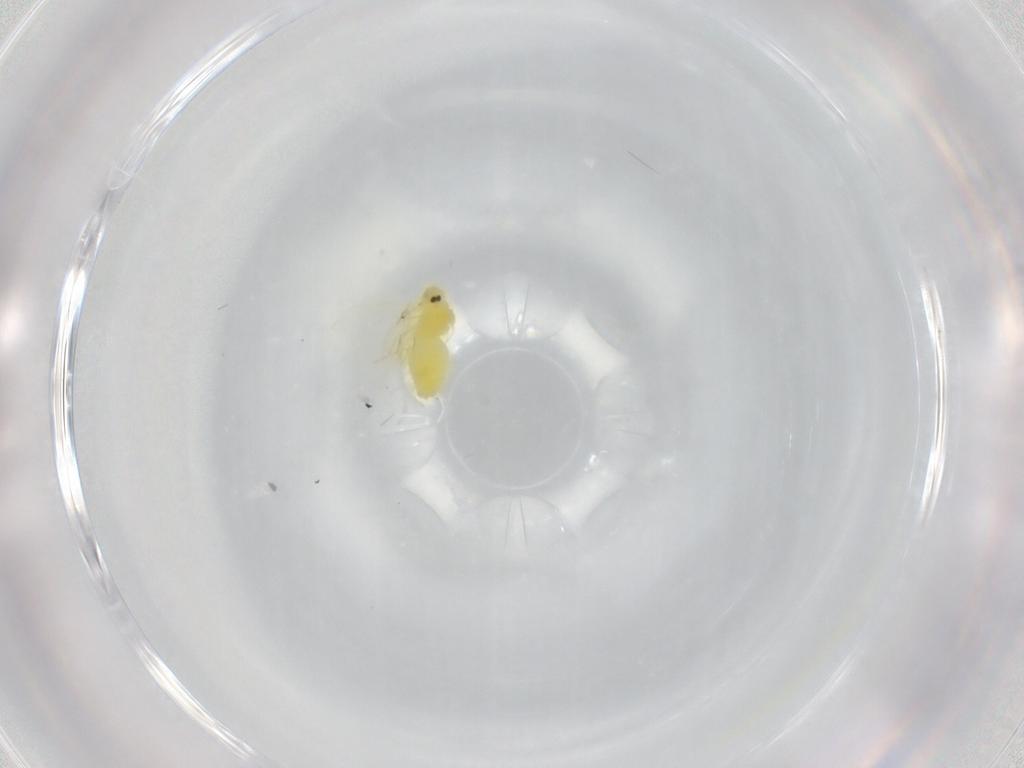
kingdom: Animalia
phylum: Arthropoda
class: Insecta
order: Hemiptera
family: Aleyrodidae
